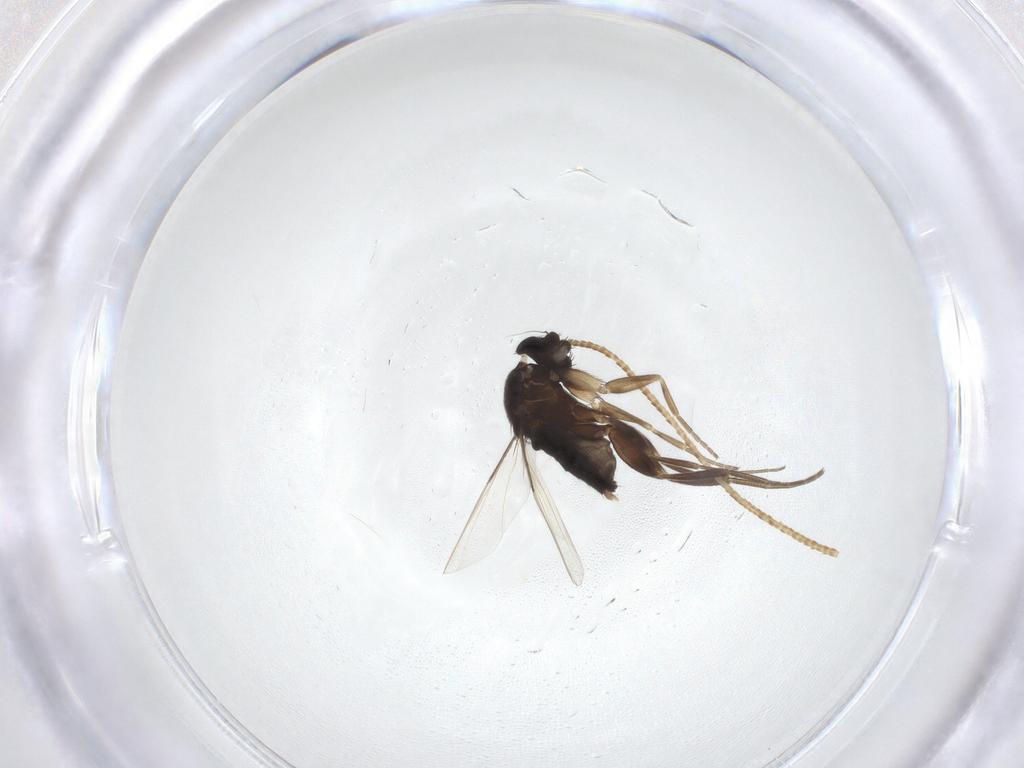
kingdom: Animalia
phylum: Arthropoda
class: Insecta
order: Diptera
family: Phoridae
